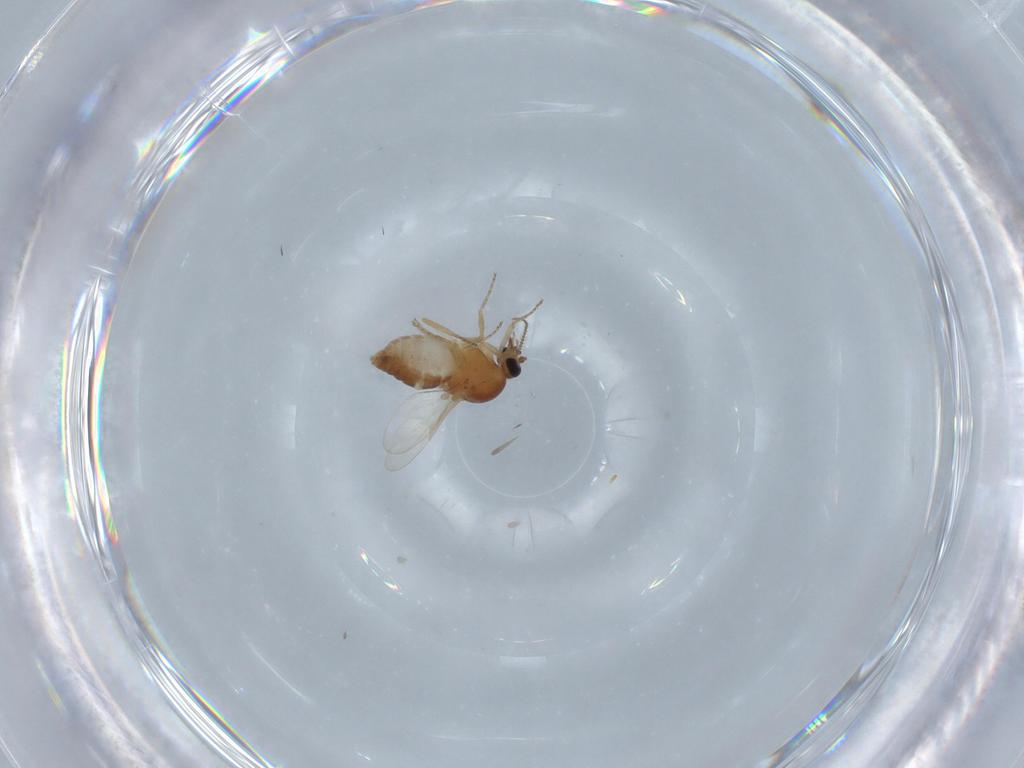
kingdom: Animalia
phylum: Arthropoda
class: Insecta
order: Diptera
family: Ceratopogonidae
